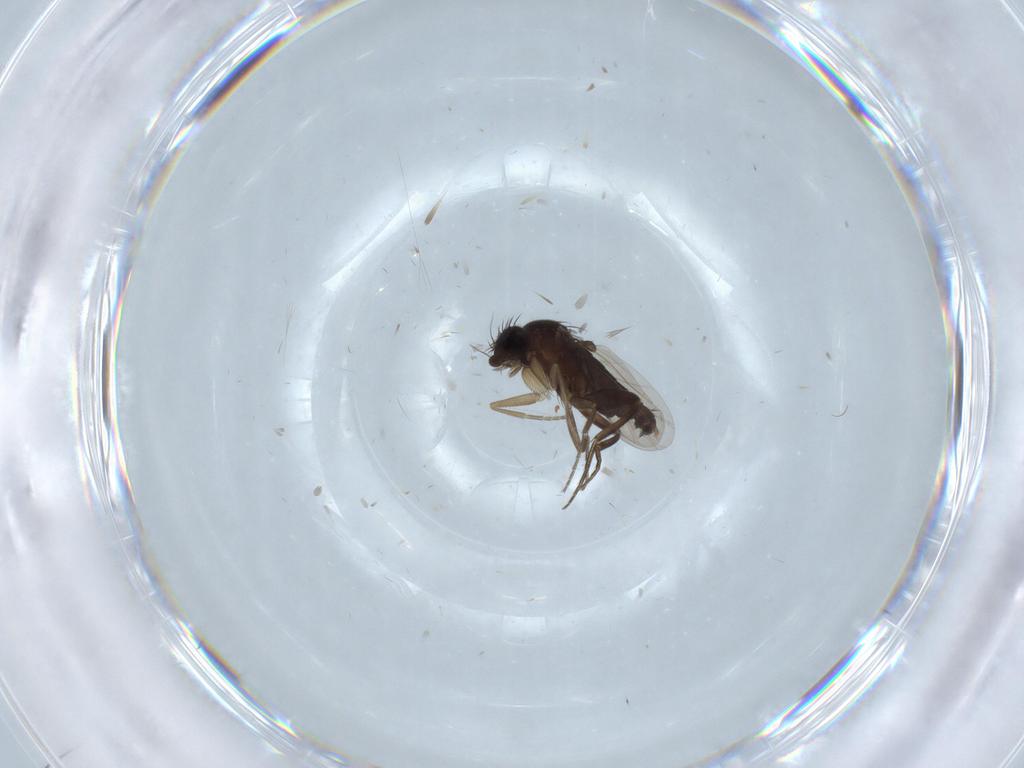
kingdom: Animalia
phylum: Arthropoda
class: Insecta
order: Diptera
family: Phoridae
